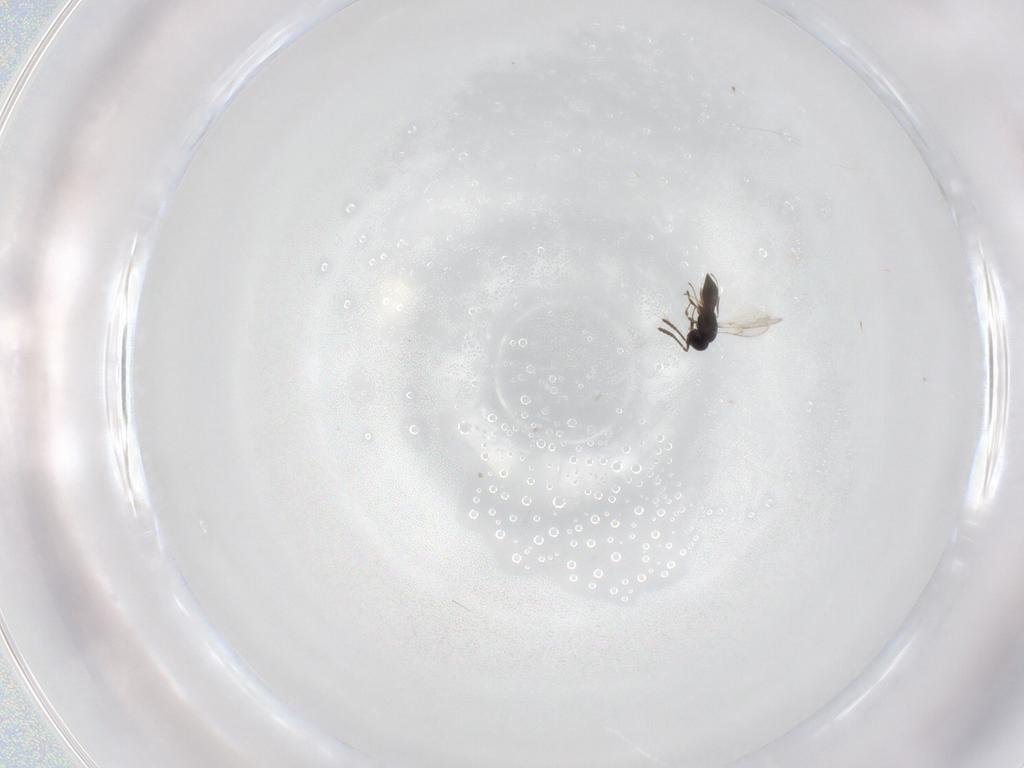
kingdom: Animalia
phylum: Arthropoda
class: Insecta
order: Hymenoptera
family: Scelionidae
